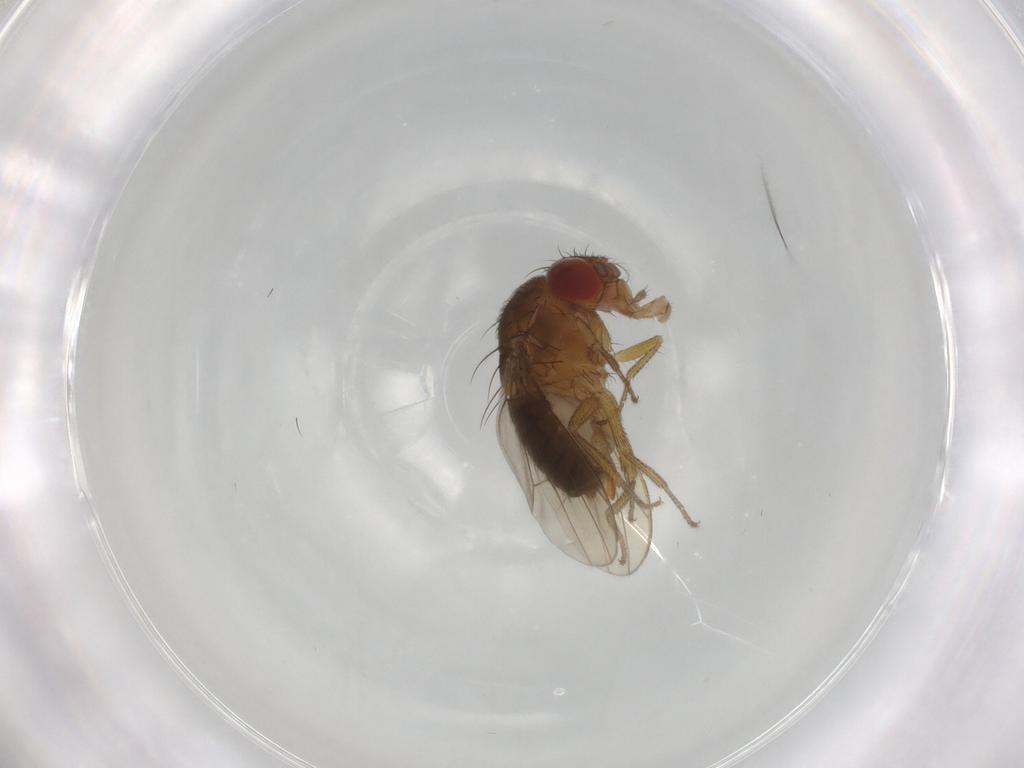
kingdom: Animalia
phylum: Arthropoda
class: Insecta
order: Diptera
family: Drosophilidae
